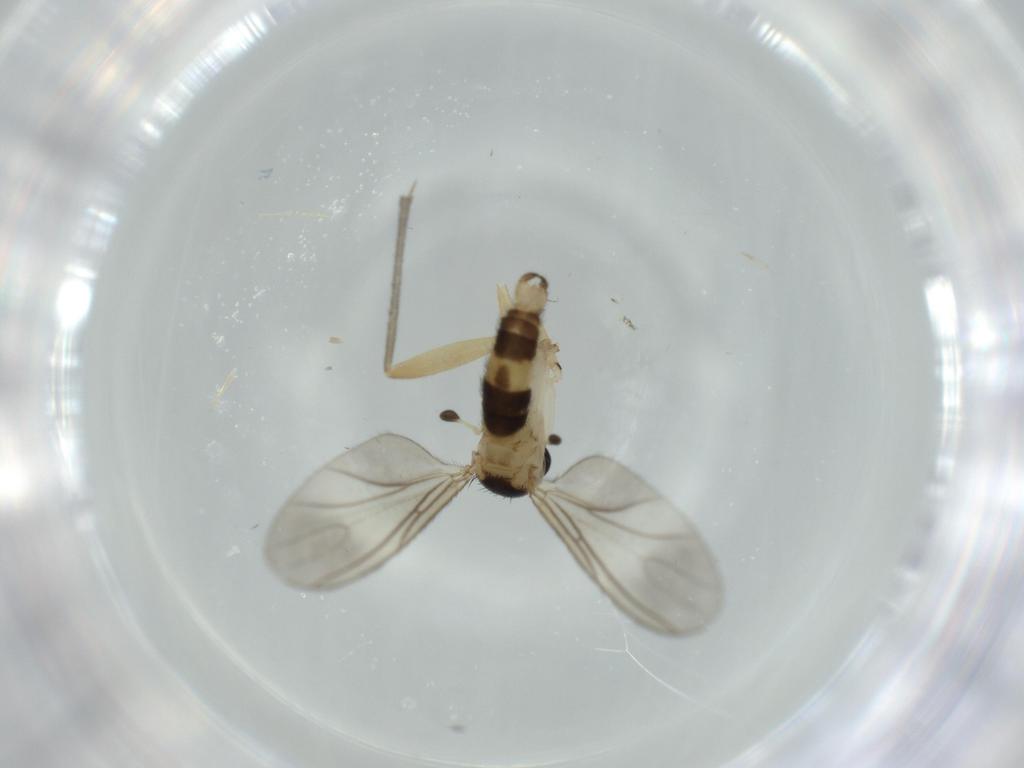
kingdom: Animalia
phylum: Arthropoda
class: Insecta
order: Diptera
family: Sciaridae
